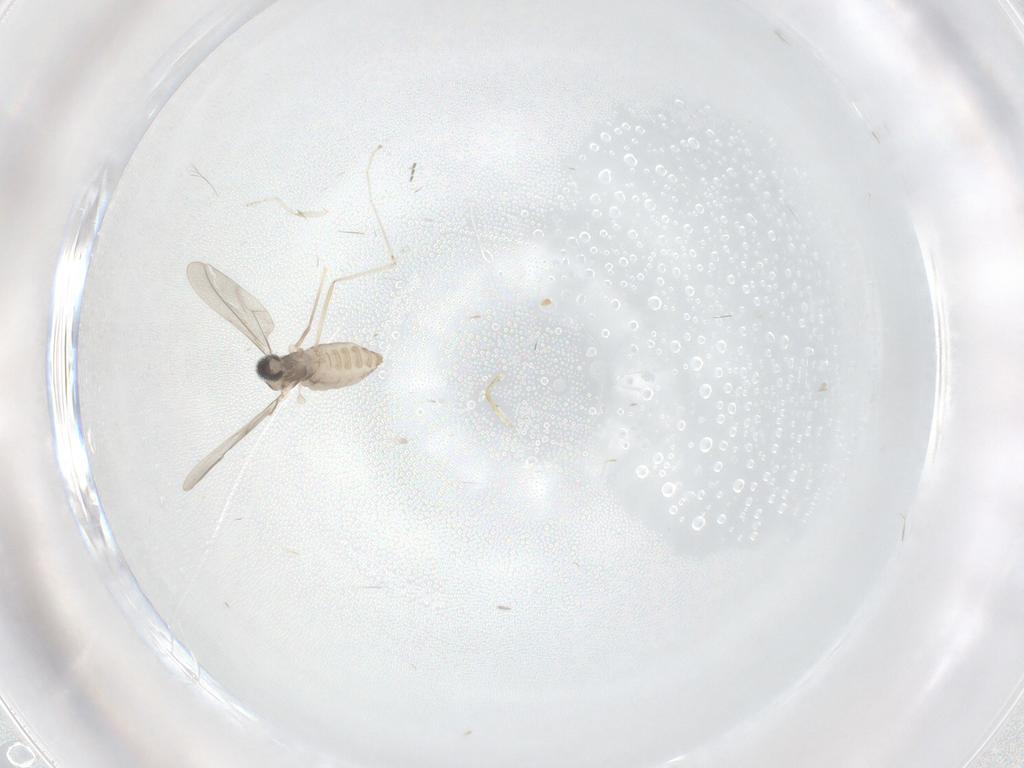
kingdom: Animalia
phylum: Arthropoda
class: Insecta
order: Diptera
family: Cecidomyiidae
